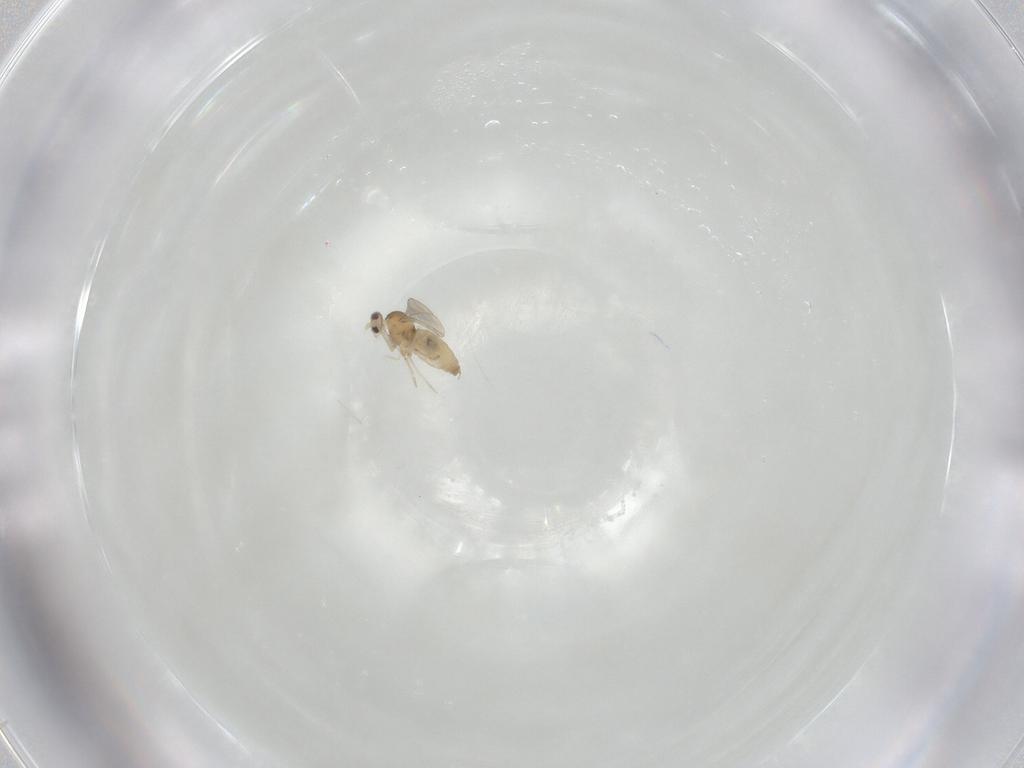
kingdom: Animalia
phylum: Arthropoda
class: Insecta
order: Diptera
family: Cecidomyiidae
